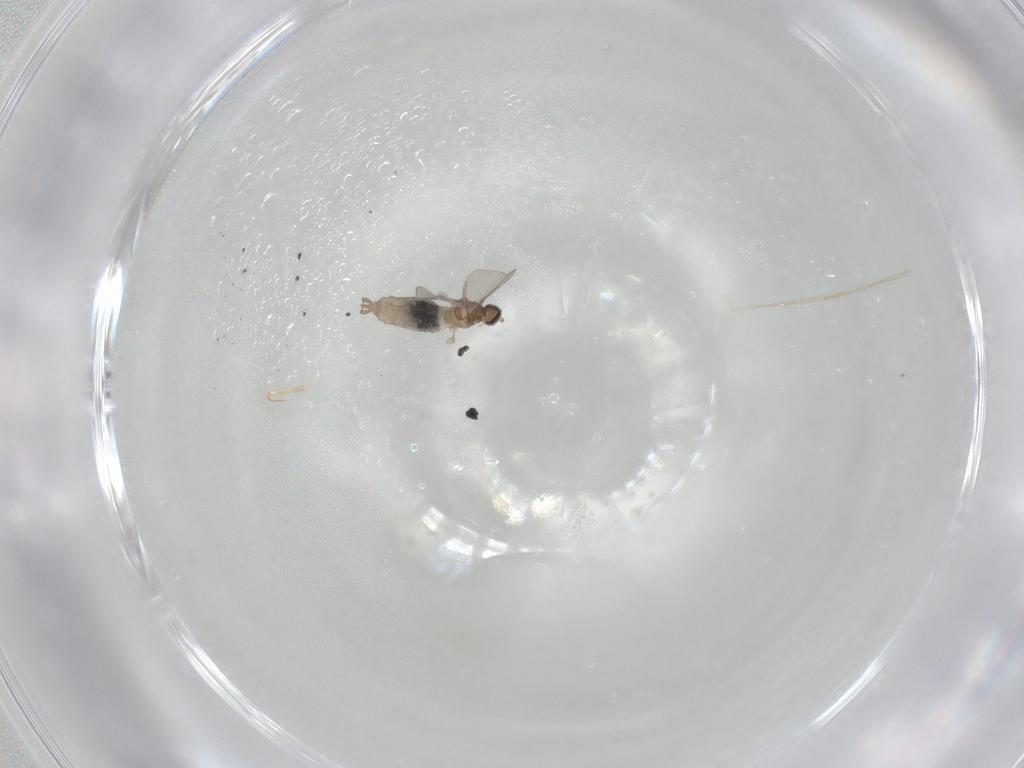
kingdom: Animalia
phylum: Arthropoda
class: Insecta
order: Diptera
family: Cecidomyiidae
